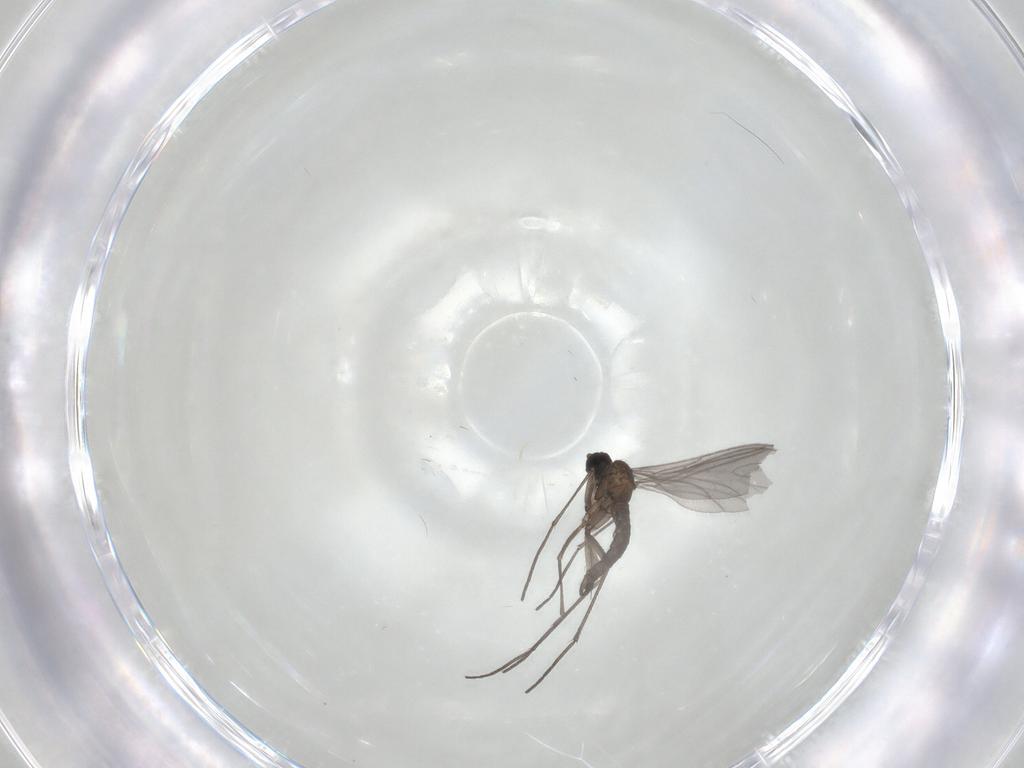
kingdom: Animalia
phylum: Arthropoda
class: Insecta
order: Diptera
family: Sciaridae
